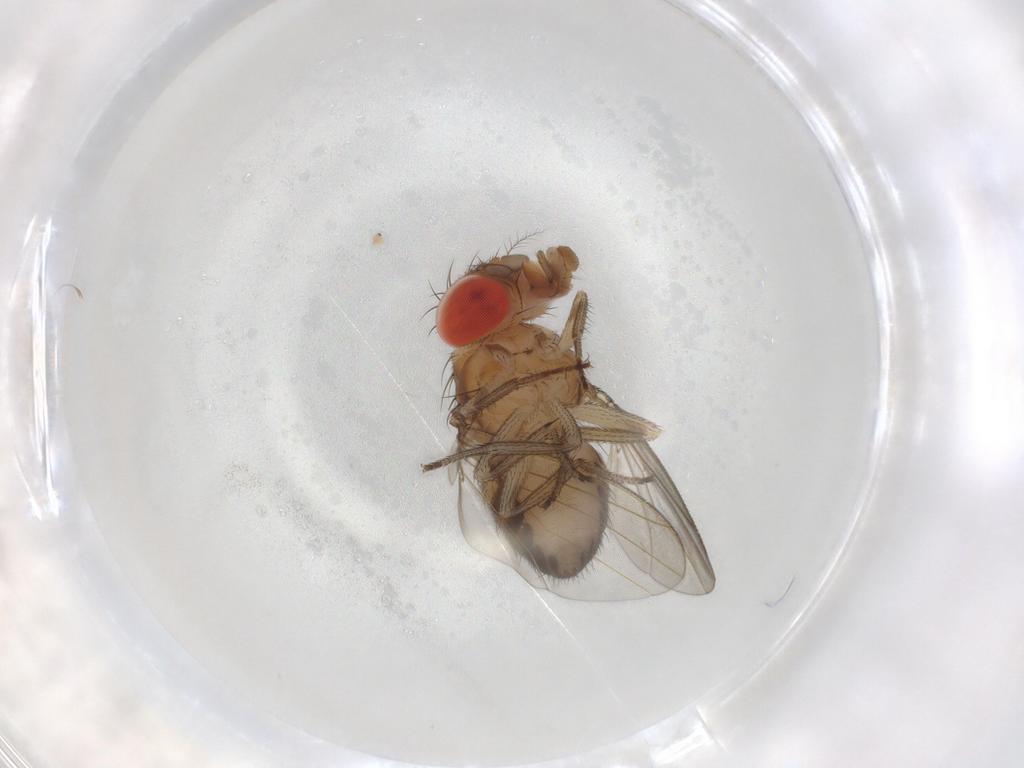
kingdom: Animalia
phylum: Arthropoda
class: Insecta
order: Diptera
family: Drosophilidae
